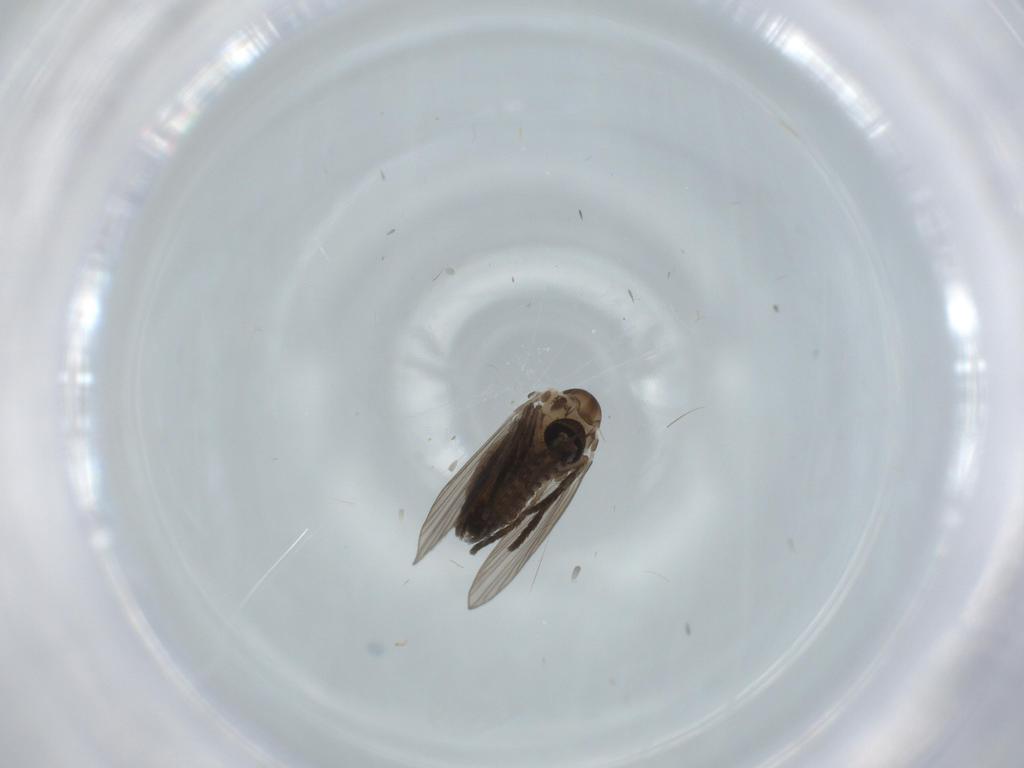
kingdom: Animalia
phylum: Arthropoda
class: Insecta
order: Diptera
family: Psychodidae
